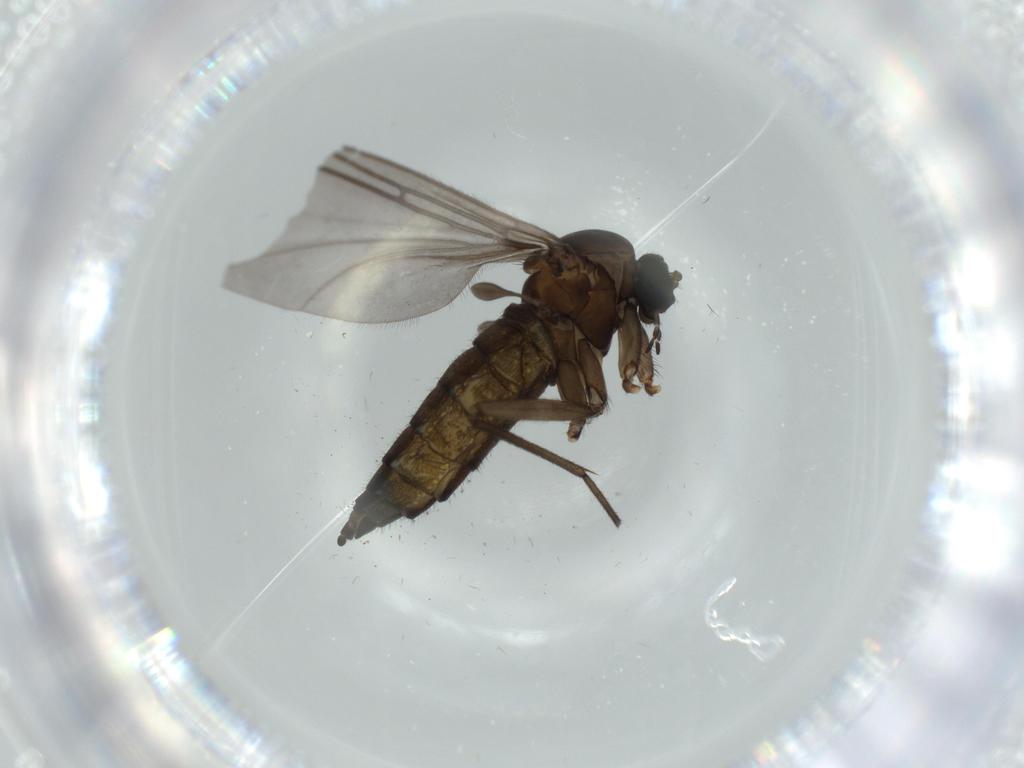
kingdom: Animalia
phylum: Arthropoda
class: Insecta
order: Diptera
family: Sciaridae
